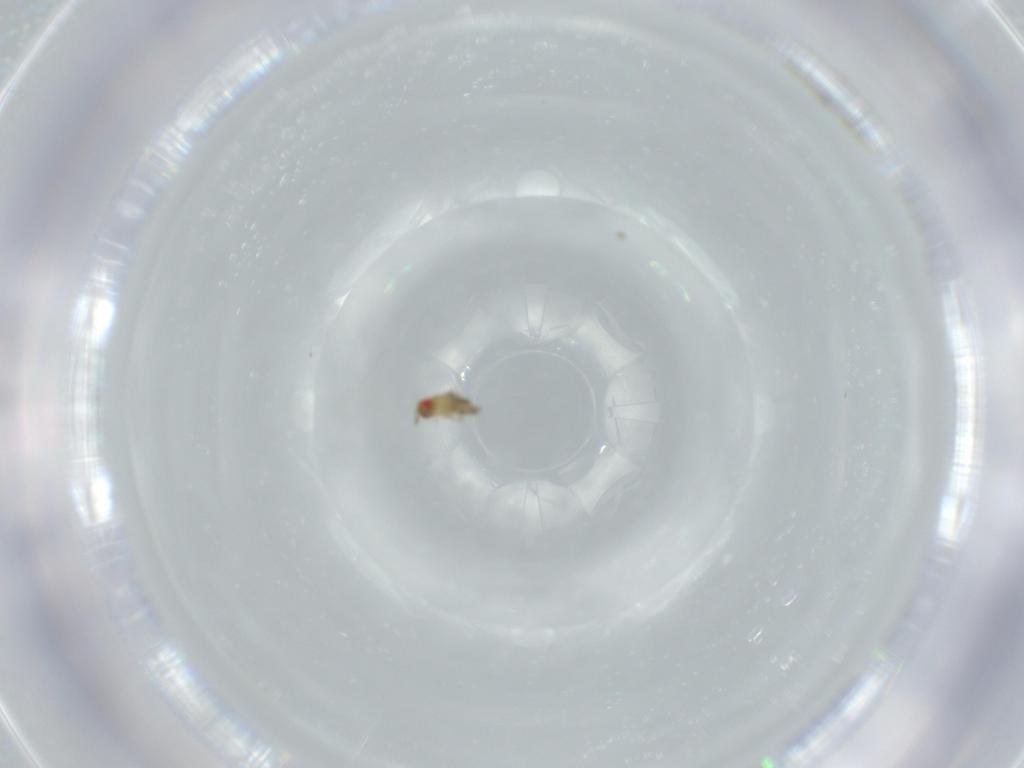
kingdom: Animalia
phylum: Arthropoda
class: Insecta
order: Hymenoptera
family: Trichogrammatidae
